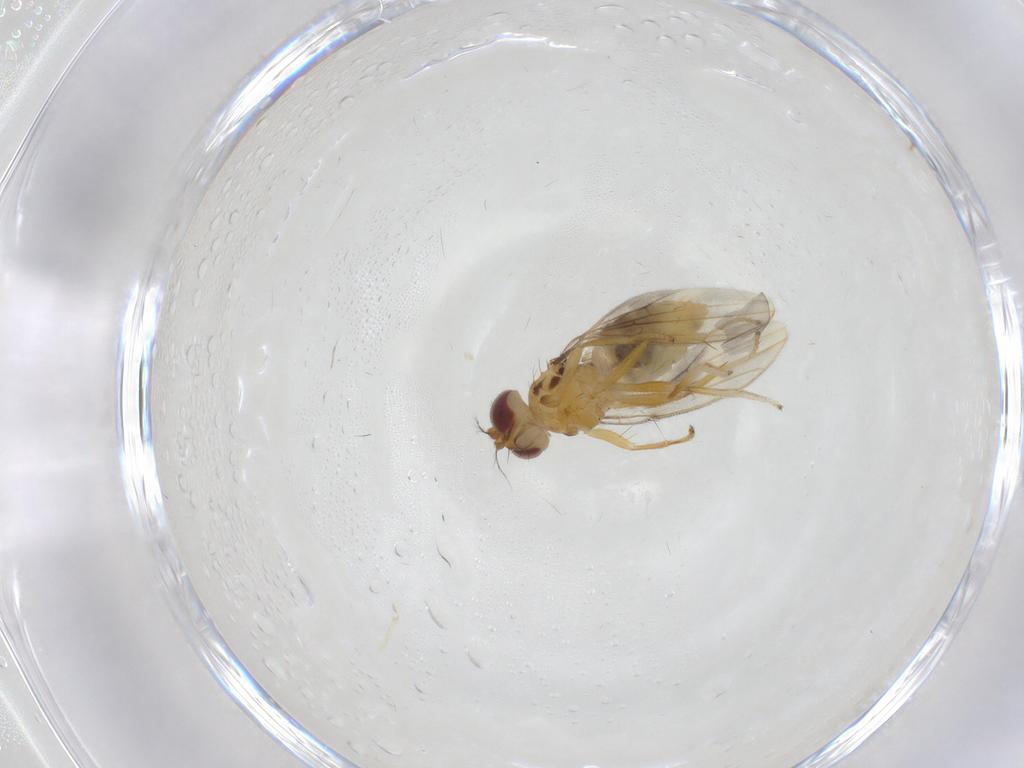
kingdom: Animalia
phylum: Arthropoda
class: Insecta
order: Diptera
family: Periscelididae
